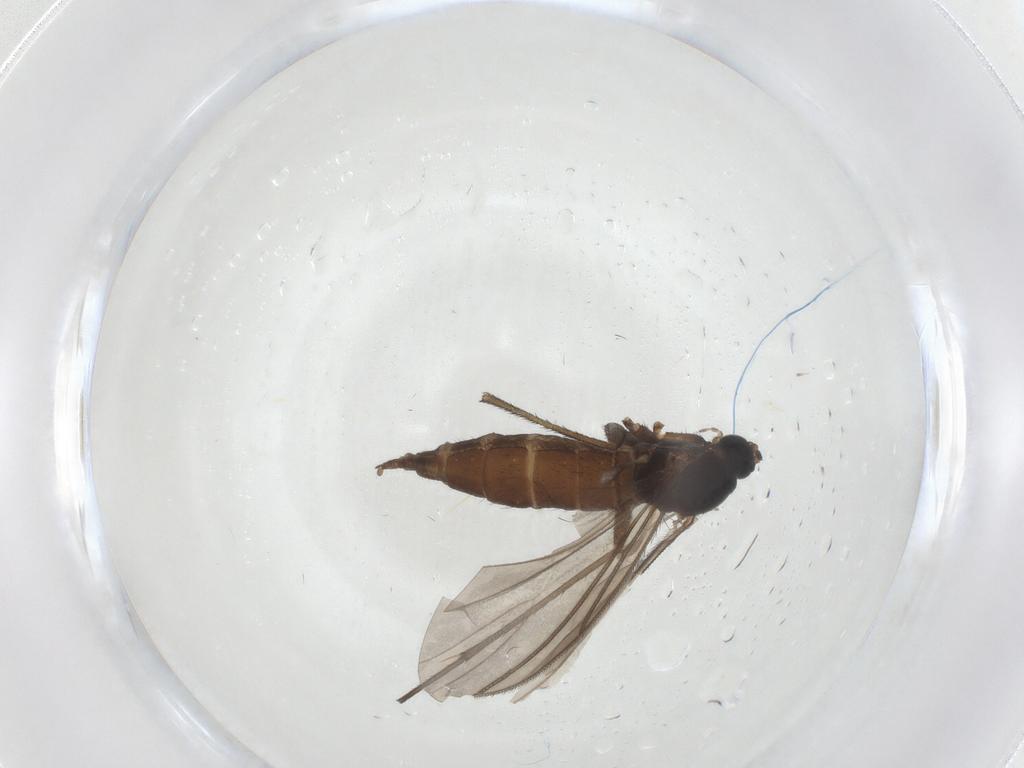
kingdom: Animalia
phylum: Arthropoda
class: Insecta
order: Diptera
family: Sciaridae
